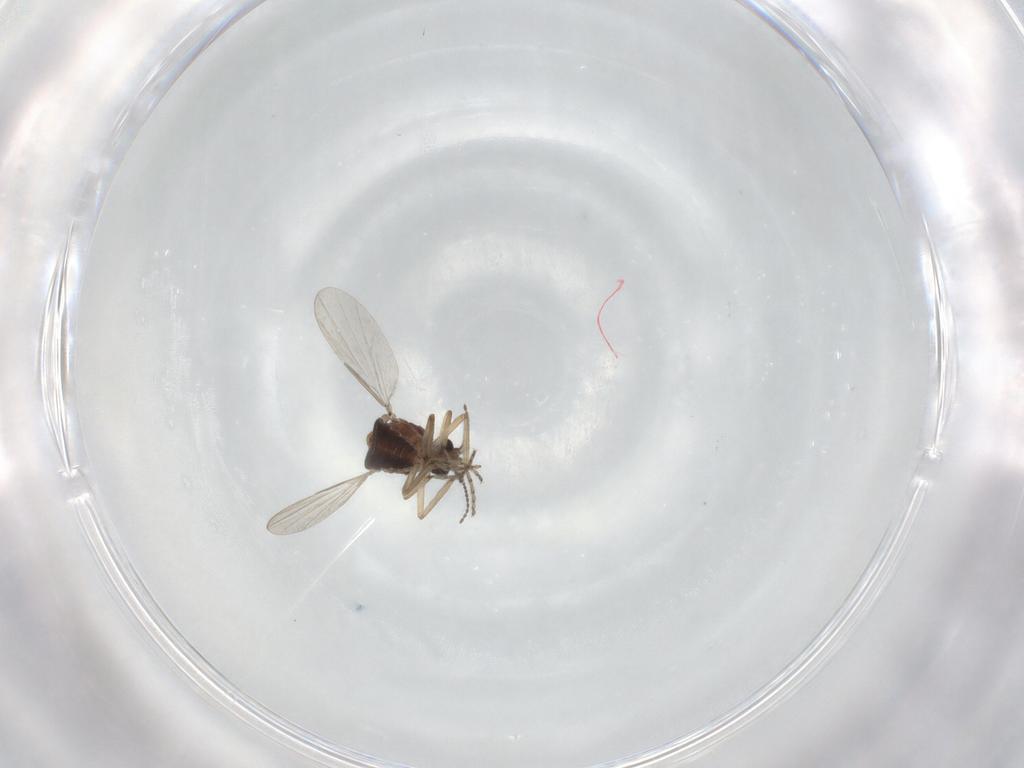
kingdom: Animalia
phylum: Arthropoda
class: Insecta
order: Diptera
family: Ceratopogonidae
